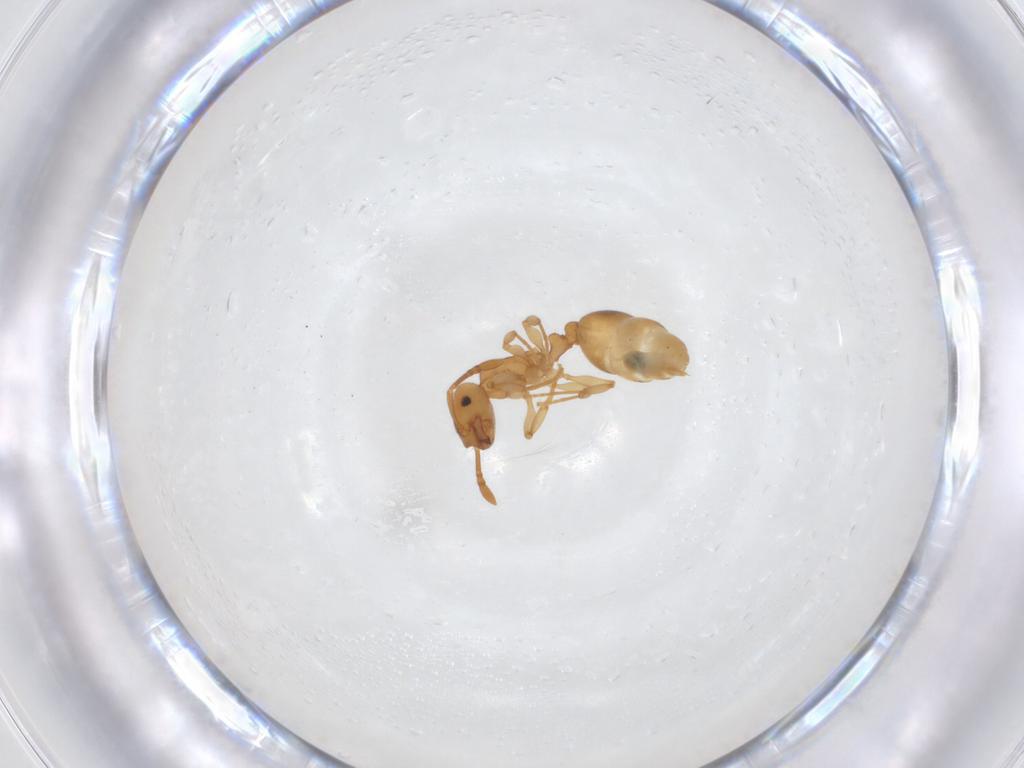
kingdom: Animalia
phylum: Arthropoda
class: Insecta
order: Hymenoptera
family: Formicidae
